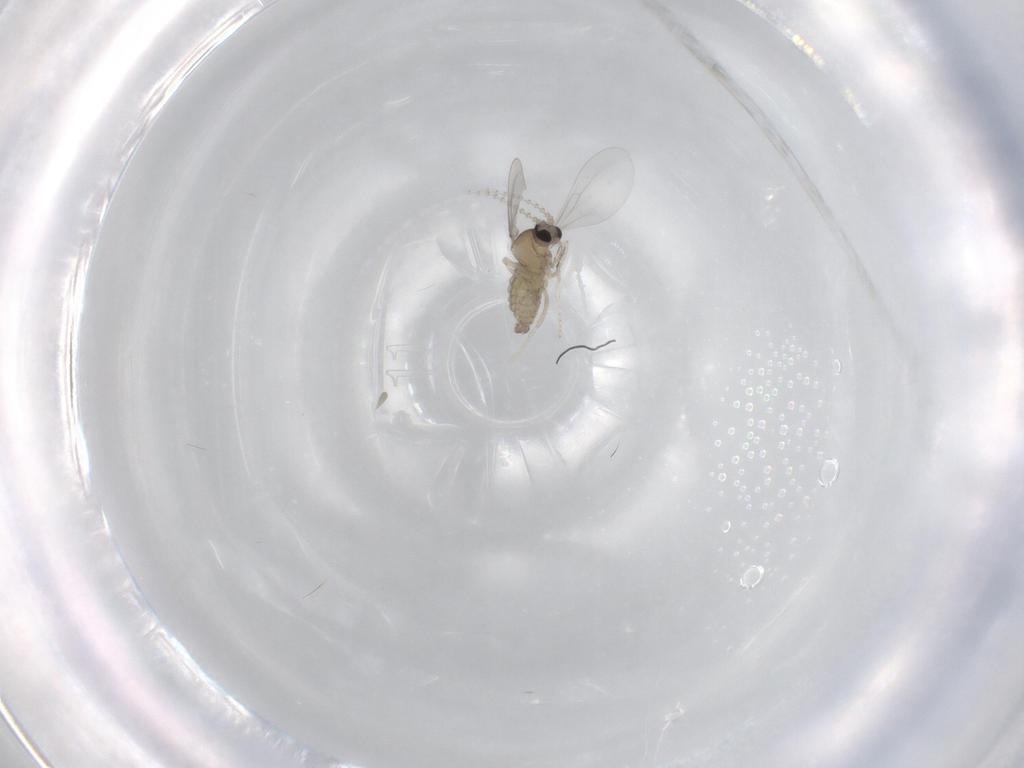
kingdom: Animalia
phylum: Arthropoda
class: Insecta
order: Diptera
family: Cecidomyiidae
